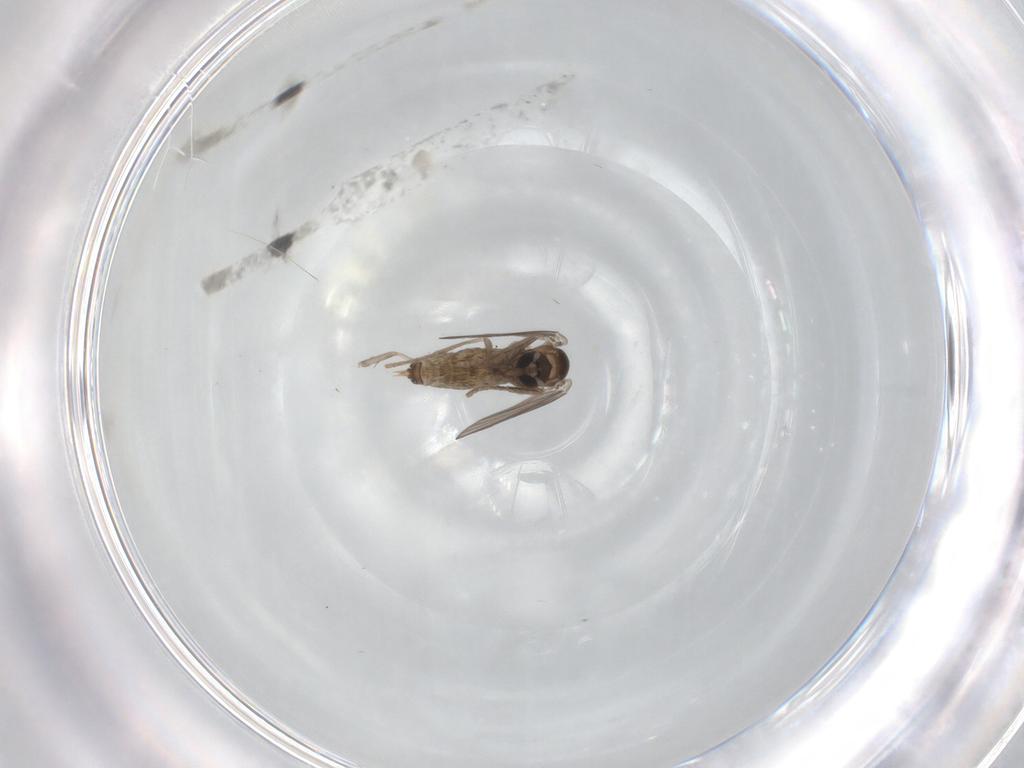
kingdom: Animalia
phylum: Arthropoda
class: Insecta
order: Diptera
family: Psychodidae
